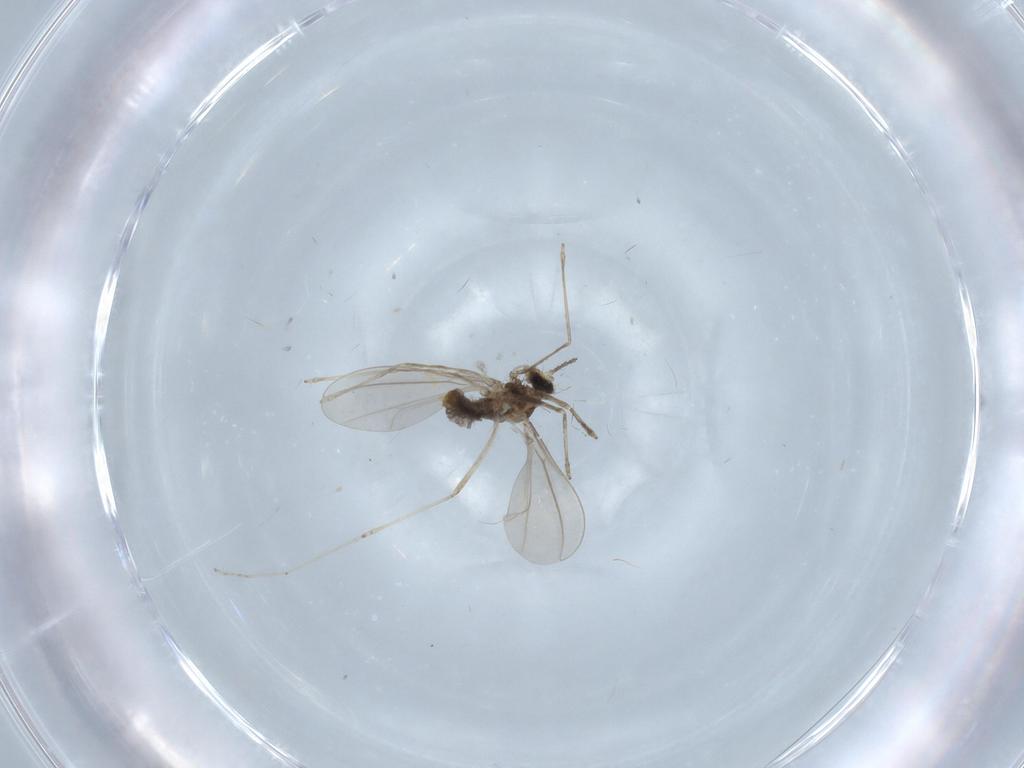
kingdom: Animalia
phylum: Arthropoda
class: Insecta
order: Diptera
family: Cecidomyiidae
